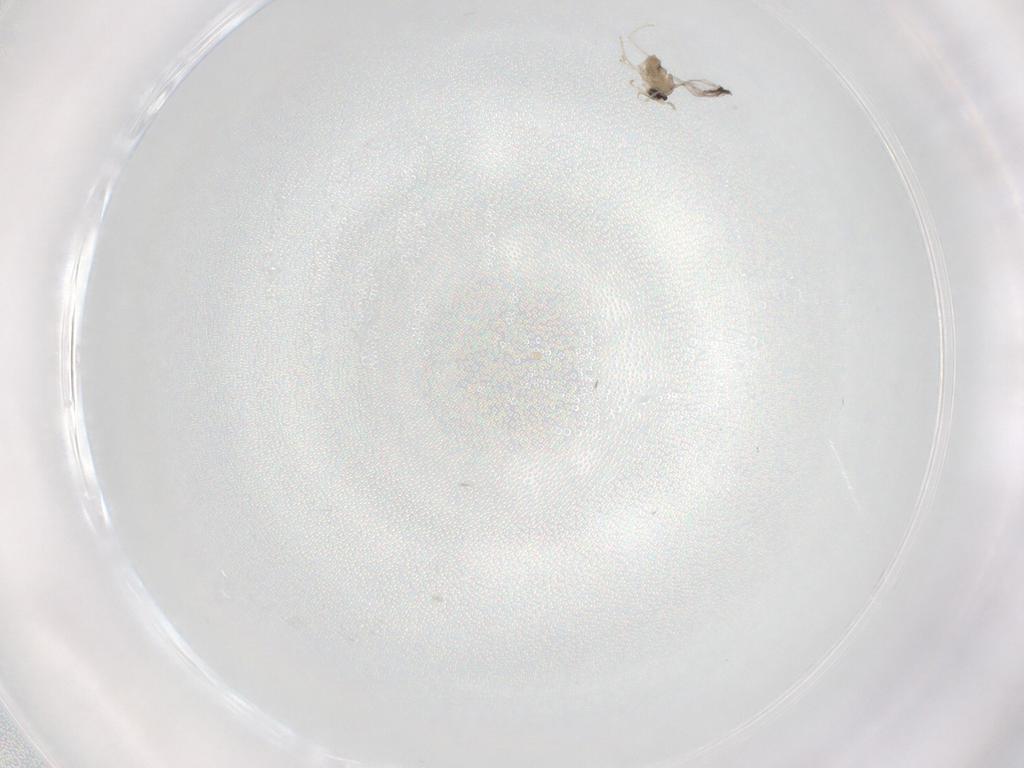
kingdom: Animalia
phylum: Arthropoda
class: Insecta
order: Diptera
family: Cecidomyiidae
